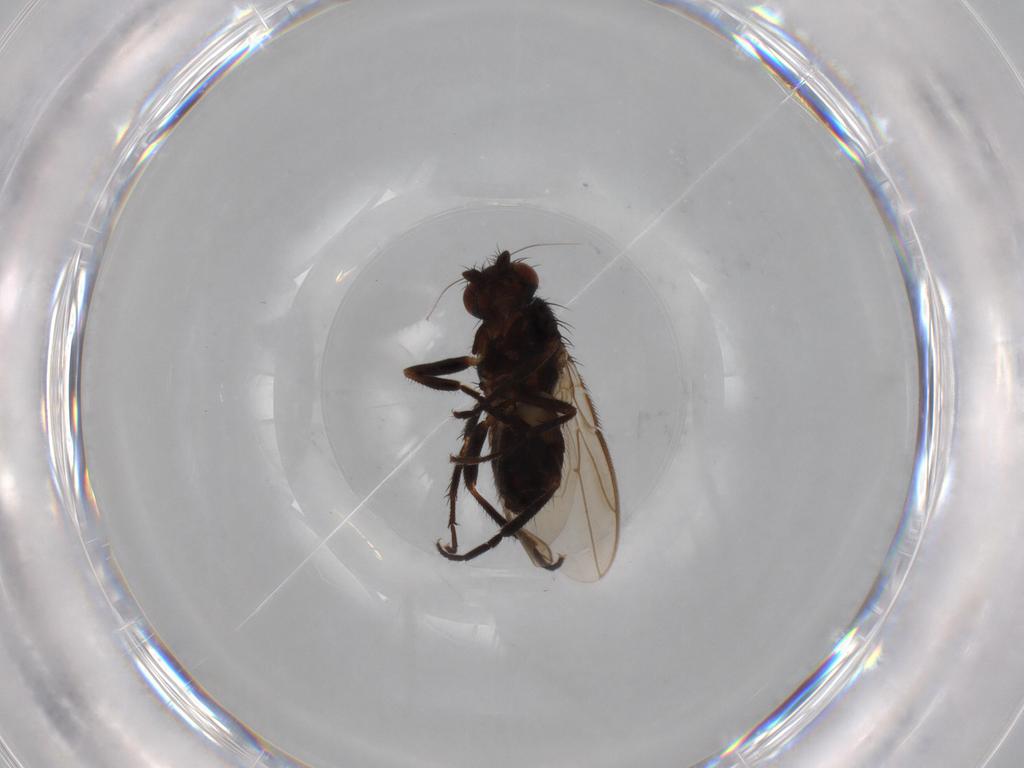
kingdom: Animalia
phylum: Arthropoda
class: Insecta
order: Diptera
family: Sphaeroceridae
